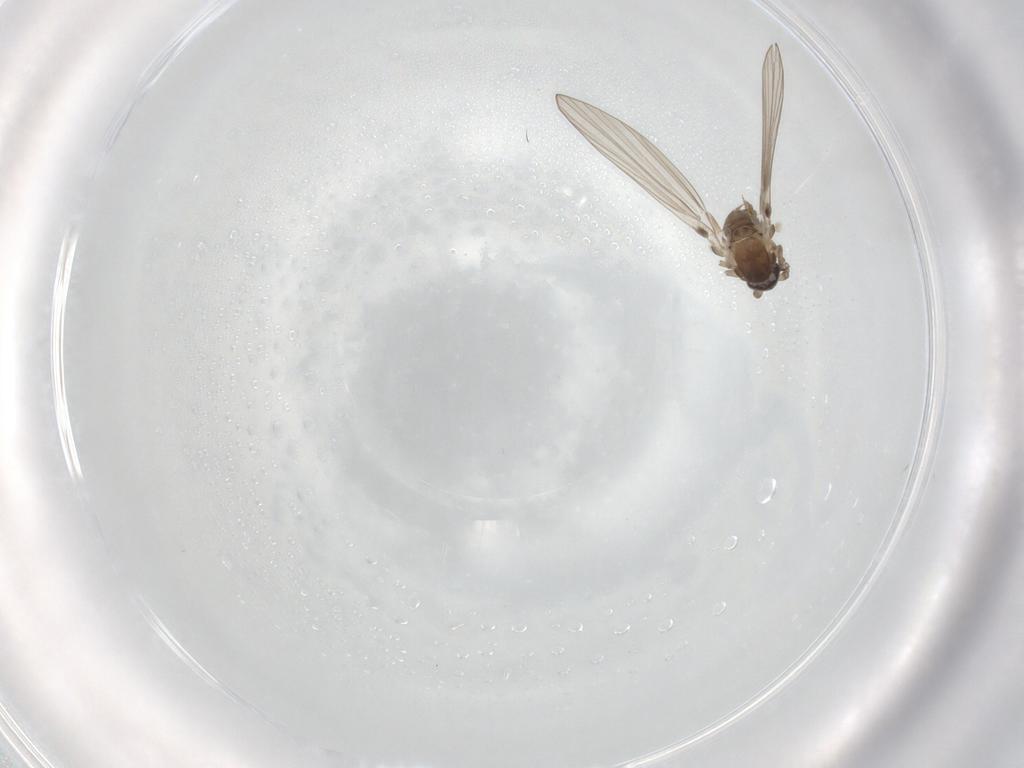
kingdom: Animalia
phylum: Arthropoda
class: Insecta
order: Diptera
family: Psychodidae
